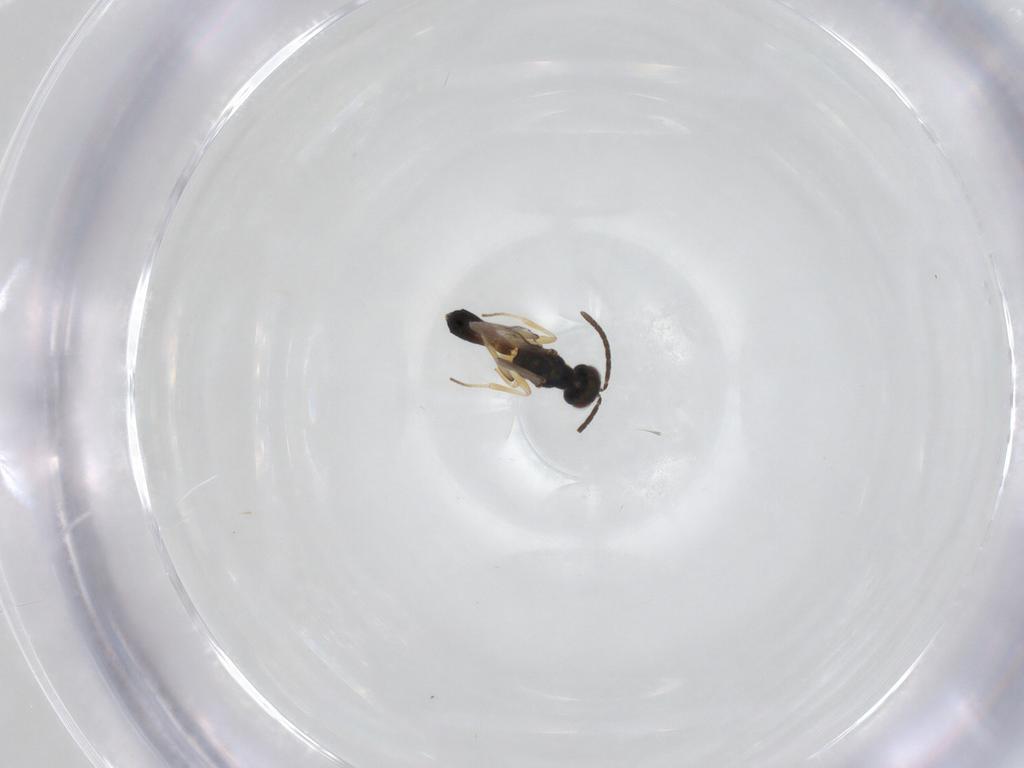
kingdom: Animalia
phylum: Arthropoda
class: Insecta
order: Hymenoptera
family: Eupelmidae
